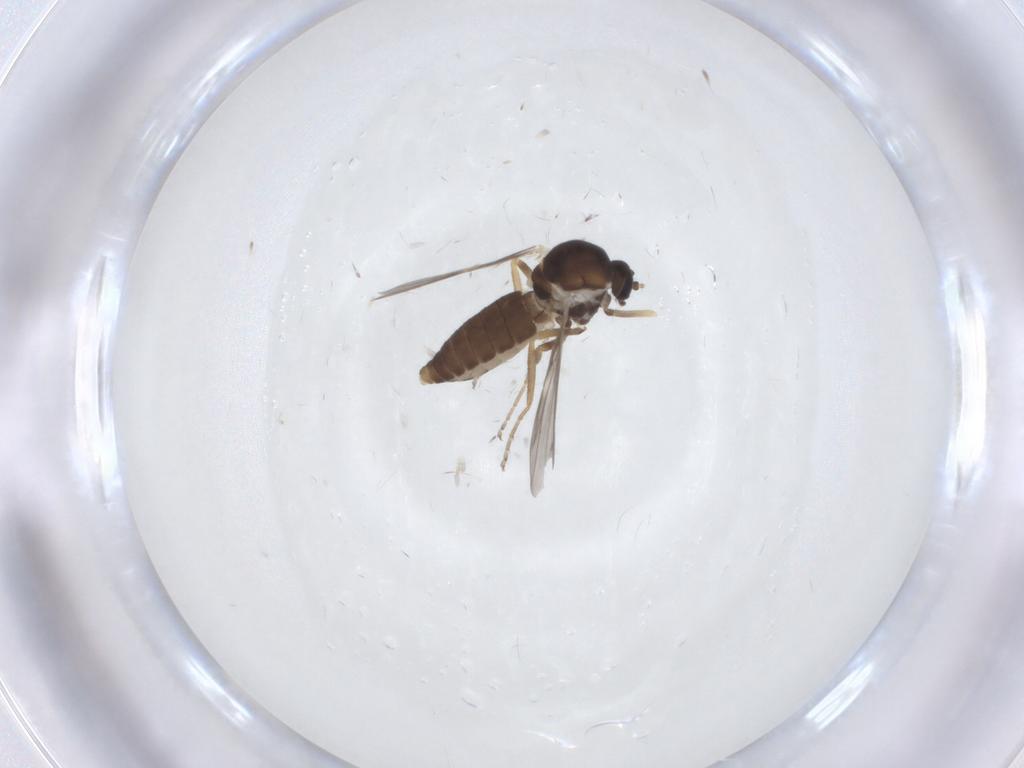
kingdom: Animalia
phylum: Arthropoda
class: Insecta
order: Diptera
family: Ceratopogonidae
